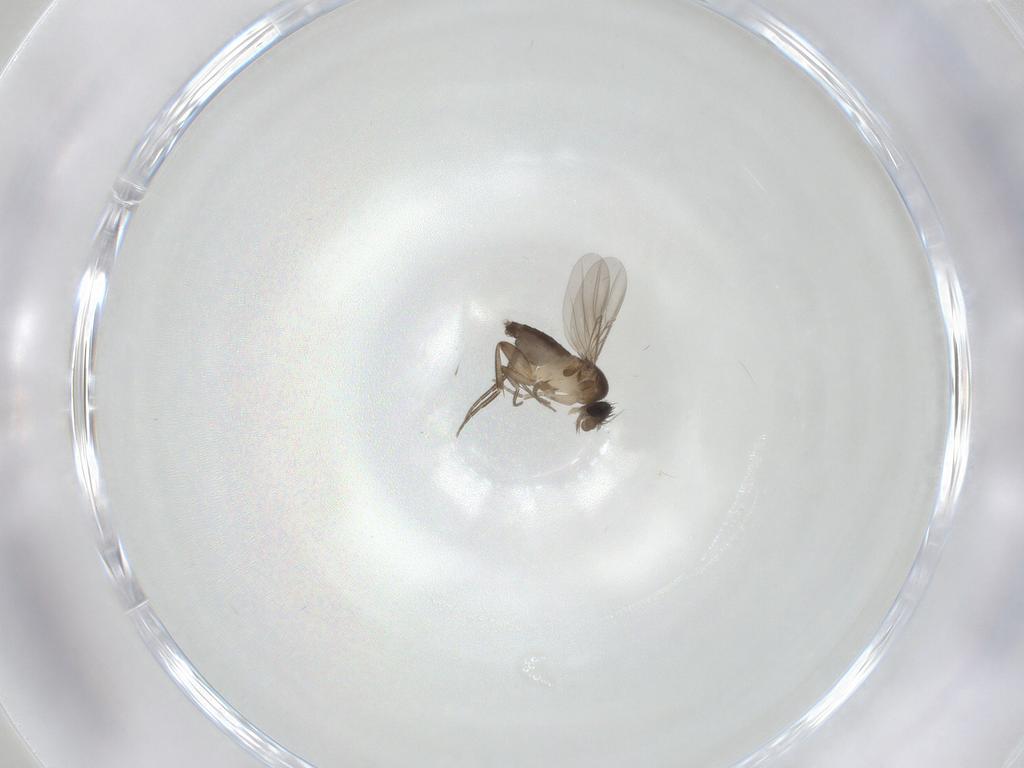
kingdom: Animalia
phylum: Arthropoda
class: Insecta
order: Diptera
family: Phoridae
